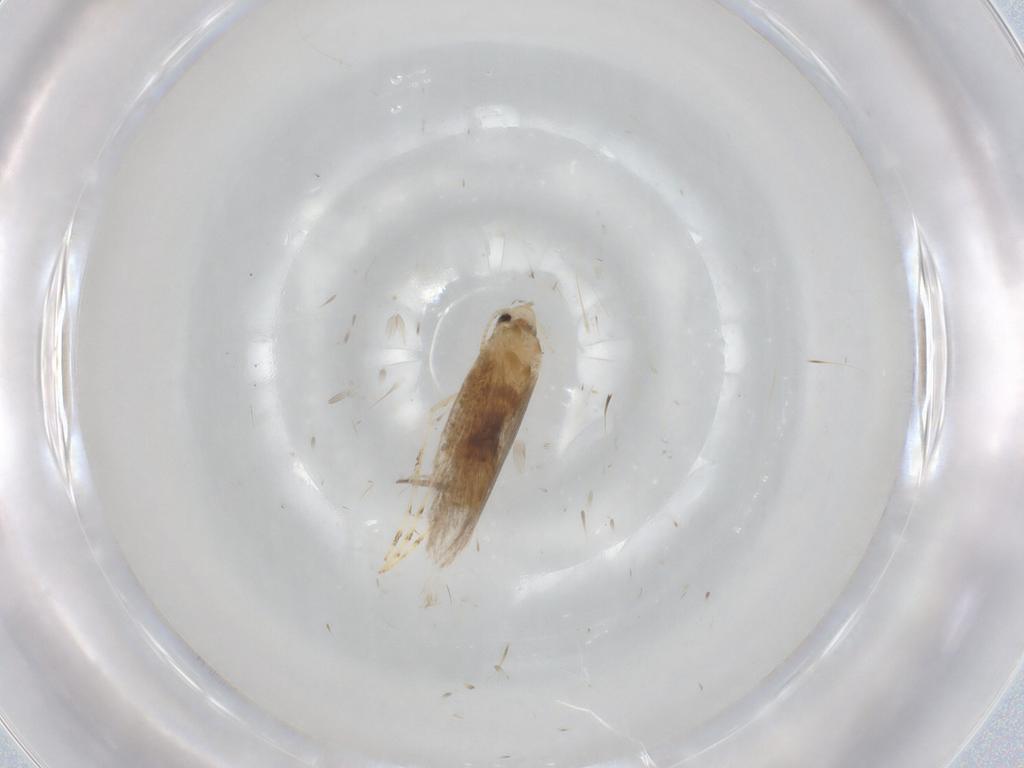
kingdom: Animalia
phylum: Arthropoda
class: Insecta
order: Lepidoptera
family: Gracillariidae
